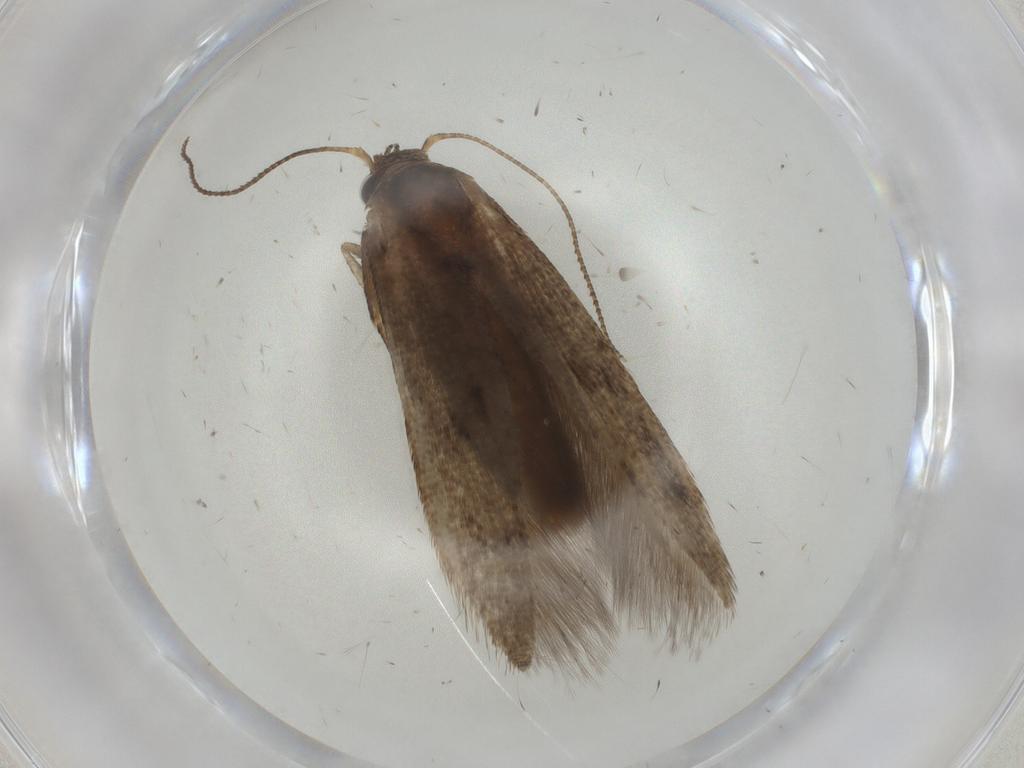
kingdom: Animalia
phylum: Arthropoda
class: Insecta
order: Lepidoptera
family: Blastobasidae
